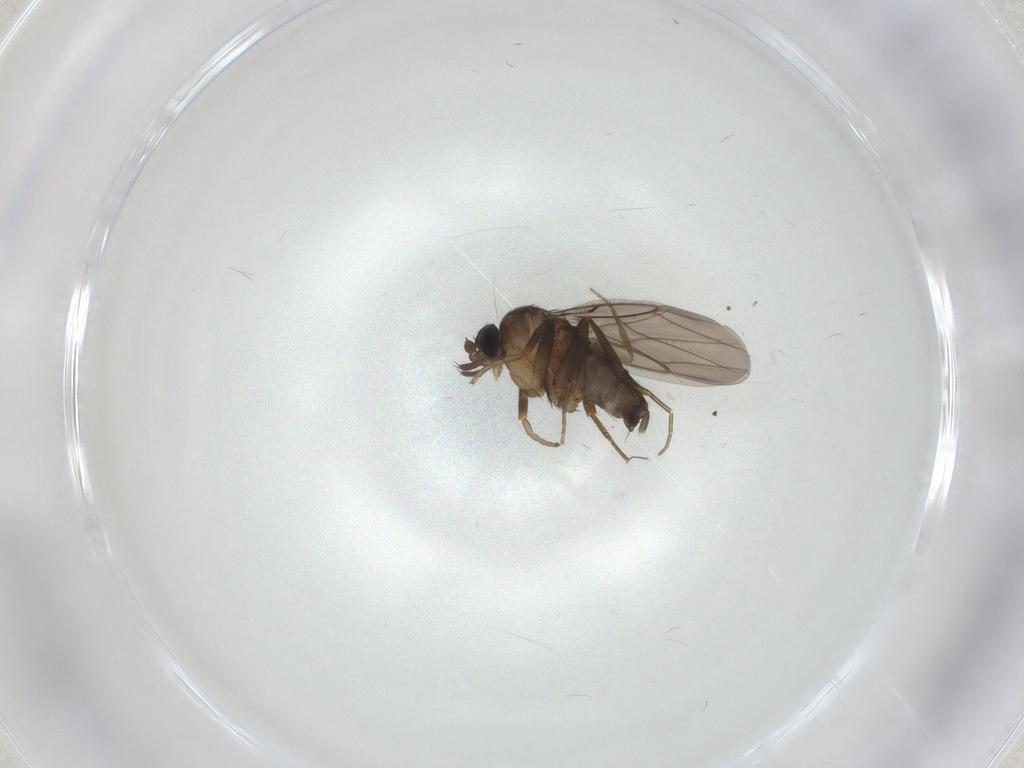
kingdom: Animalia
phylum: Arthropoda
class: Insecta
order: Diptera
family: Phoridae
